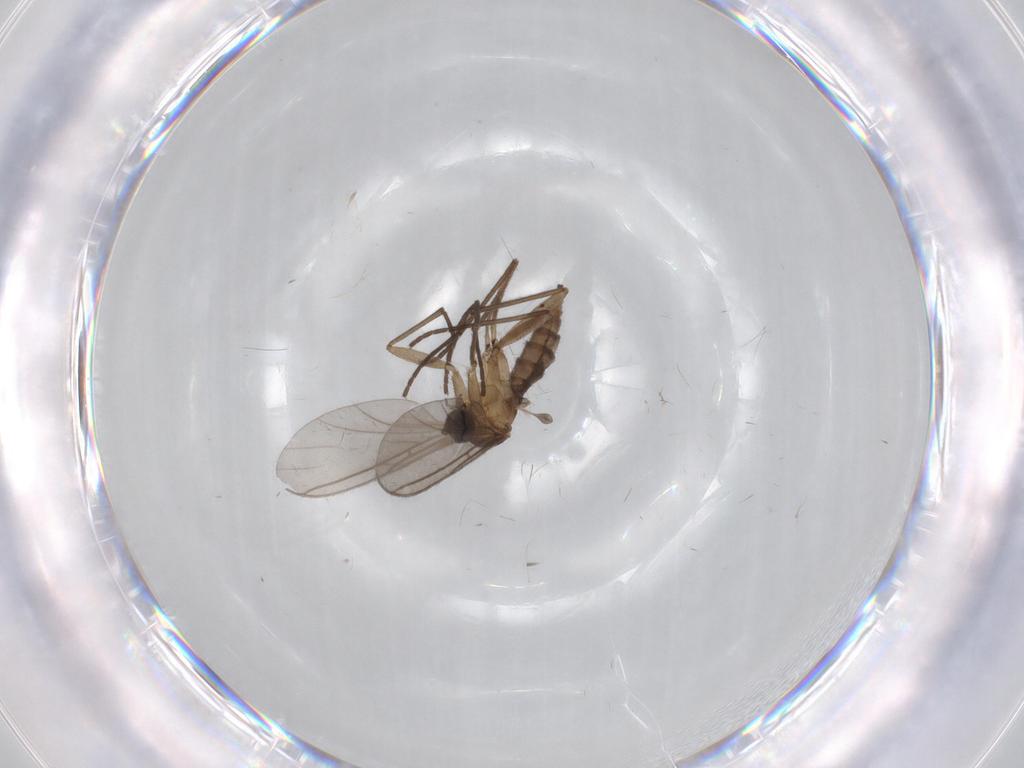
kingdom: Animalia
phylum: Arthropoda
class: Insecta
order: Diptera
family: Sciaridae
